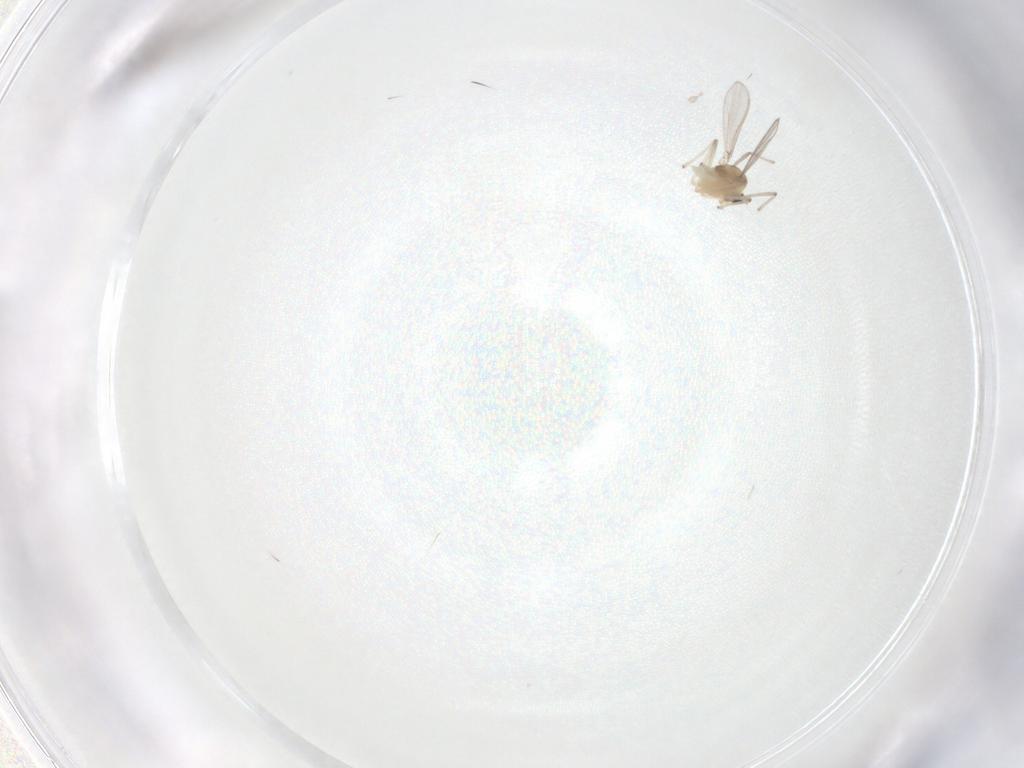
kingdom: Animalia
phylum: Arthropoda
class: Insecta
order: Diptera
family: Chironomidae
